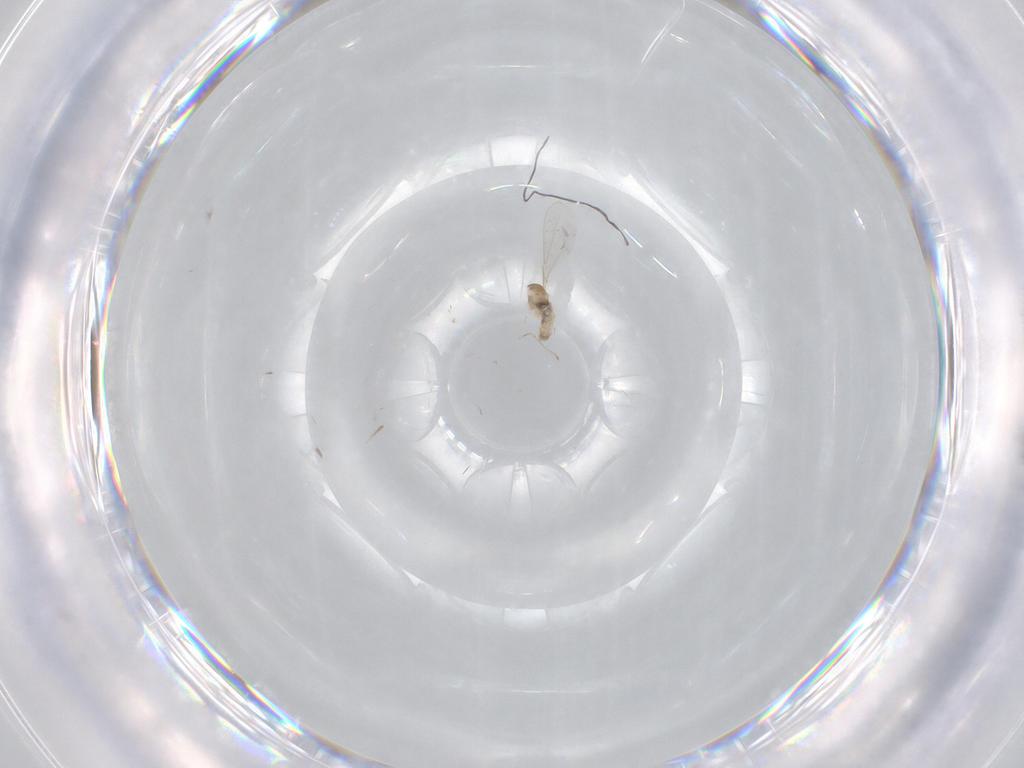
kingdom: Animalia
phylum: Arthropoda
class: Insecta
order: Diptera
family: Cecidomyiidae
